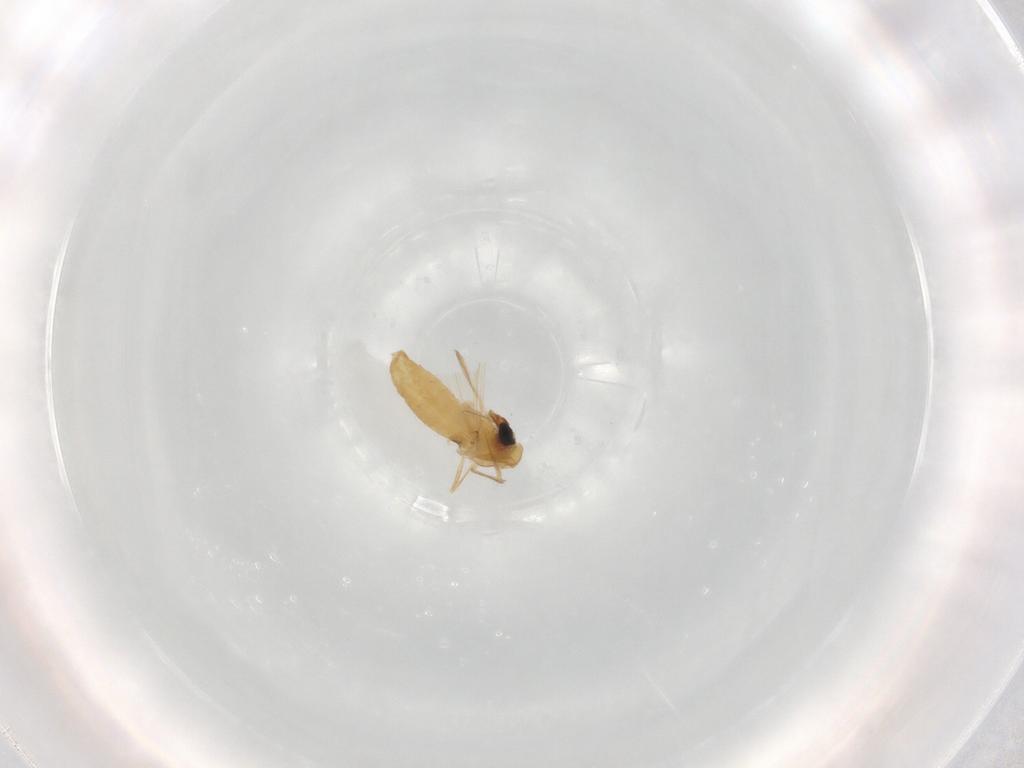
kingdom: Animalia
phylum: Arthropoda
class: Insecta
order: Diptera
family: Chironomidae
